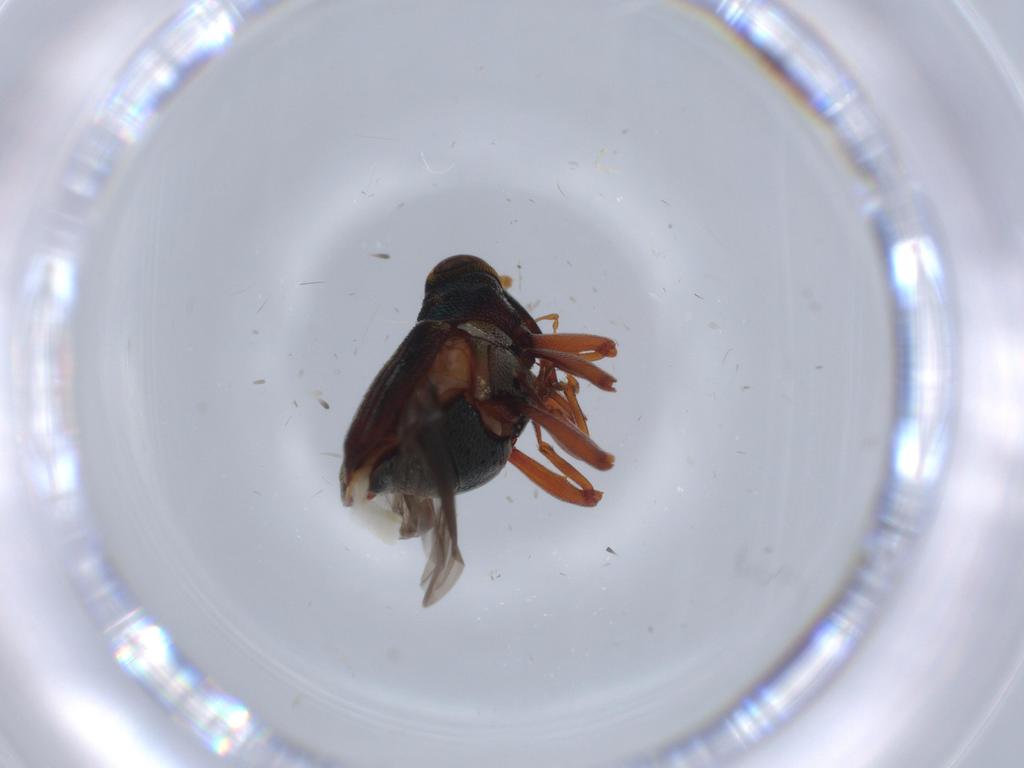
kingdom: Animalia
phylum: Arthropoda
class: Insecta
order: Coleoptera
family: Curculionidae
